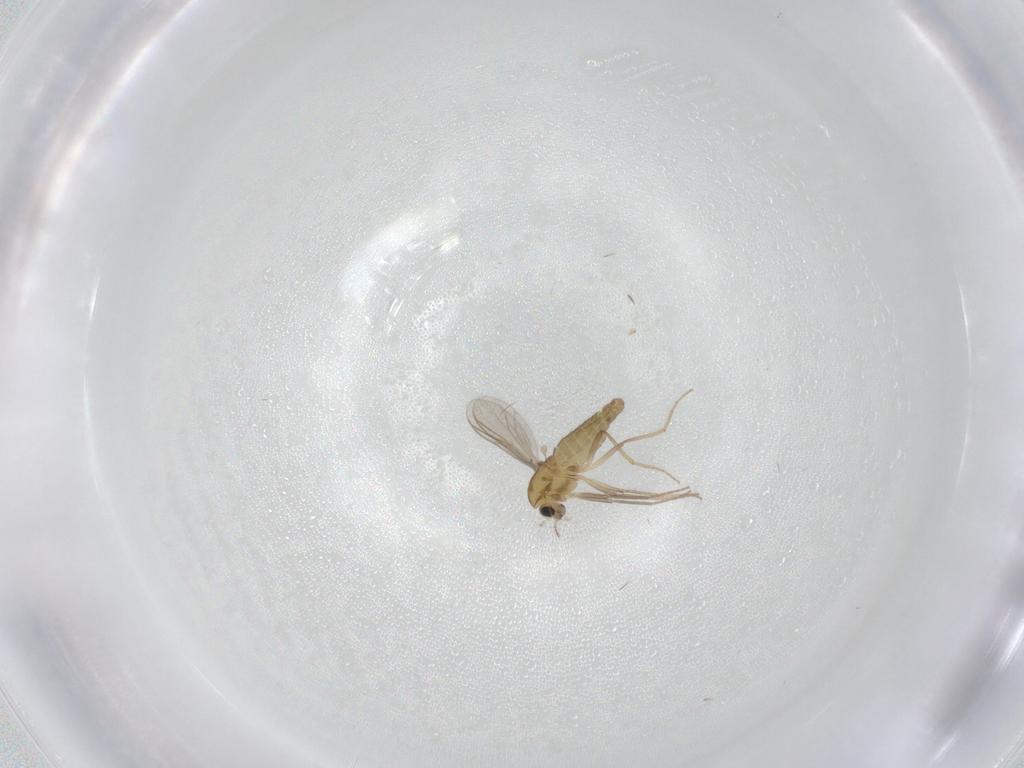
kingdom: Animalia
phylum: Arthropoda
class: Insecta
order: Diptera
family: Chironomidae
